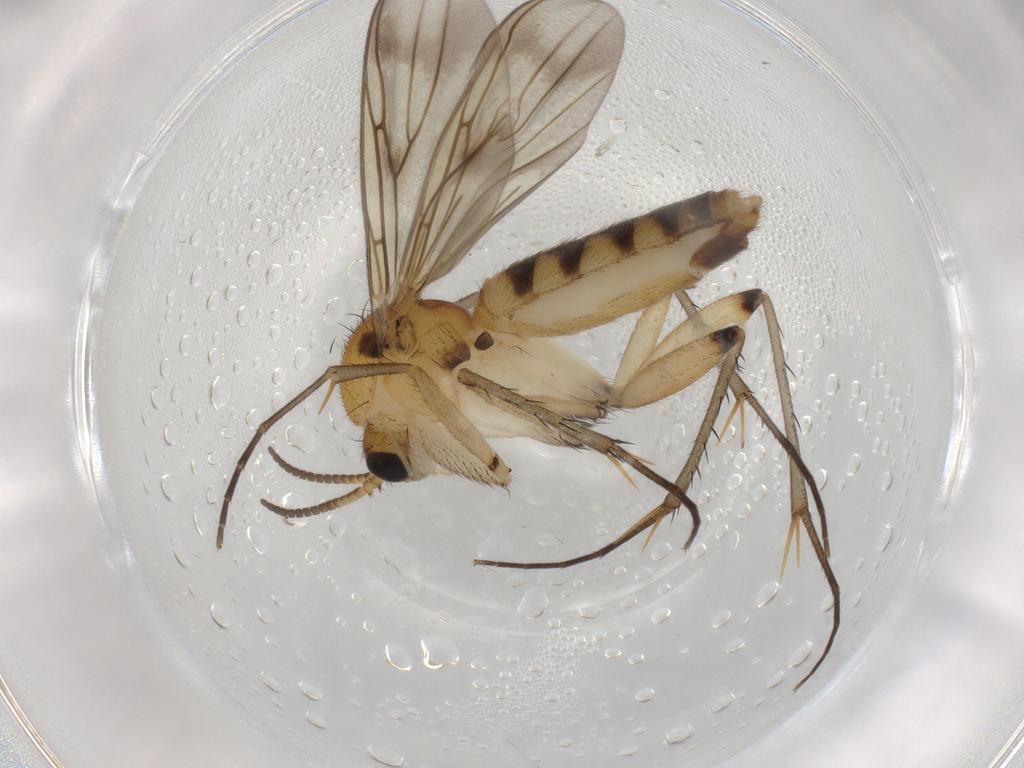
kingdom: Animalia
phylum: Arthropoda
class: Insecta
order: Diptera
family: Mycetophilidae
